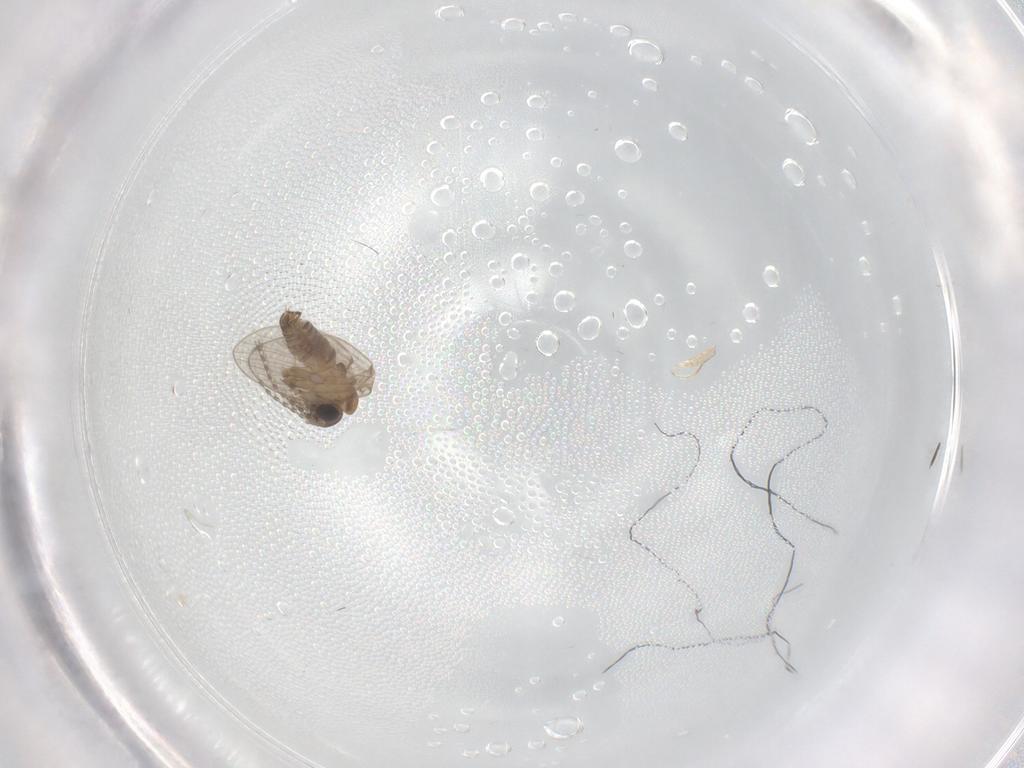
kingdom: Animalia
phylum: Arthropoda
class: Insecta
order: Diptera
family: Psychodidae
